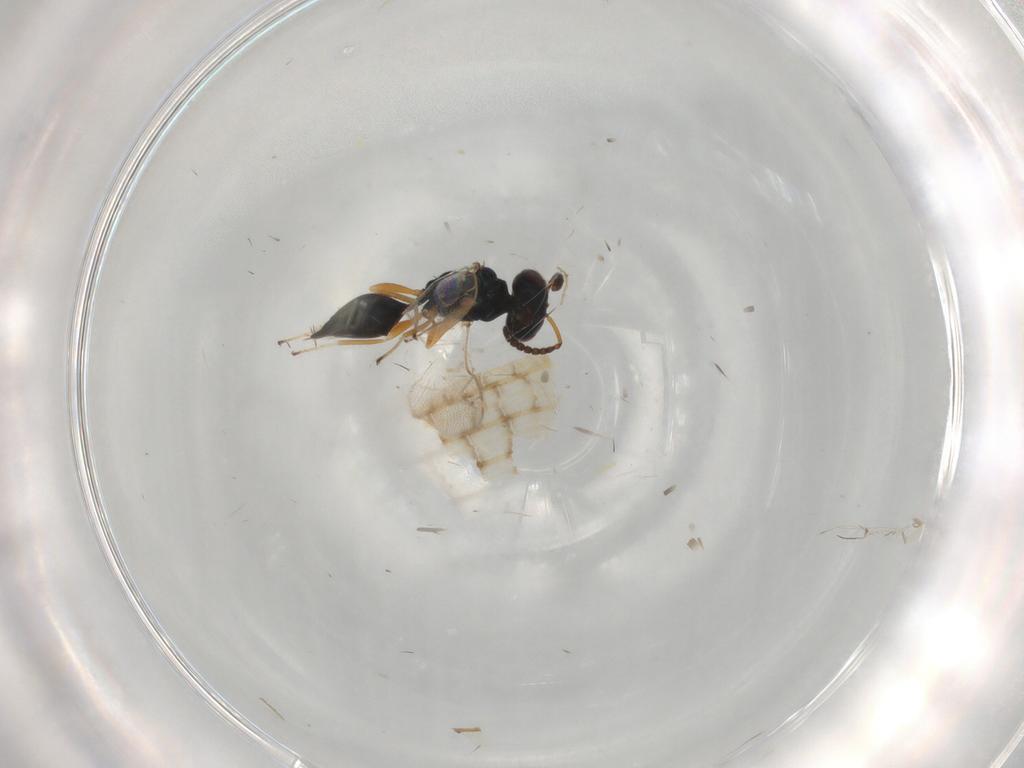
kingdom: Animalia
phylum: Arthropoda
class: Insecta
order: Hymenoptera
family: Pteromalidae
